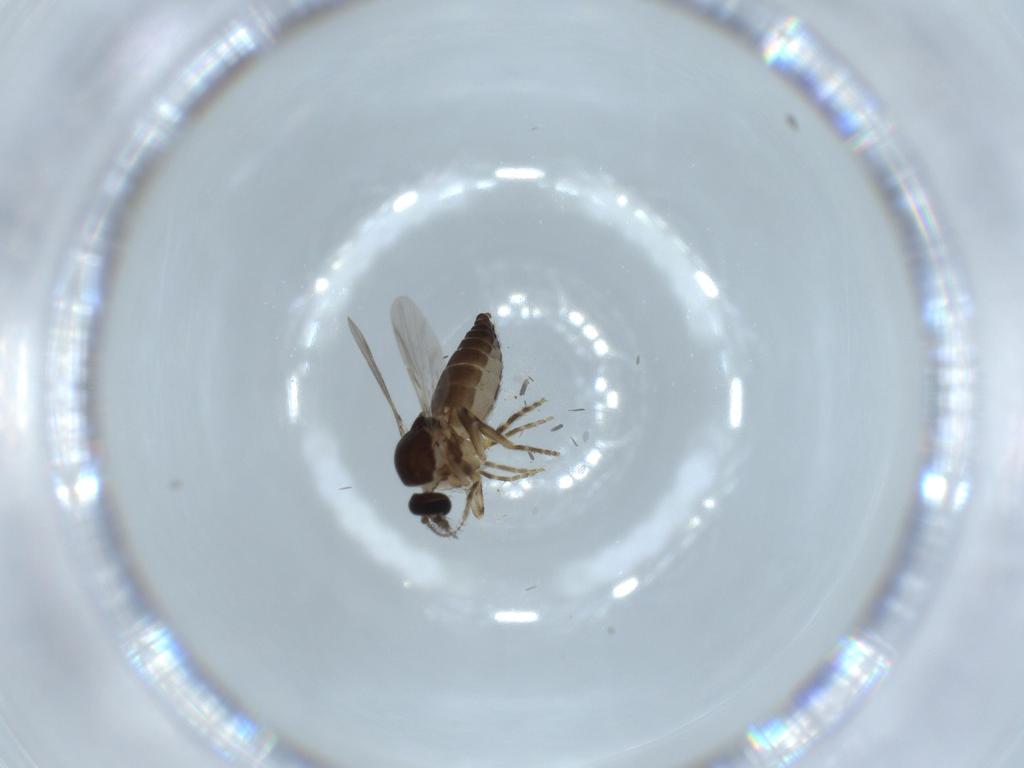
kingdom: Animalia
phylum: Arthropoda
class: Insecta
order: Diptera
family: Ceratopogonidae
